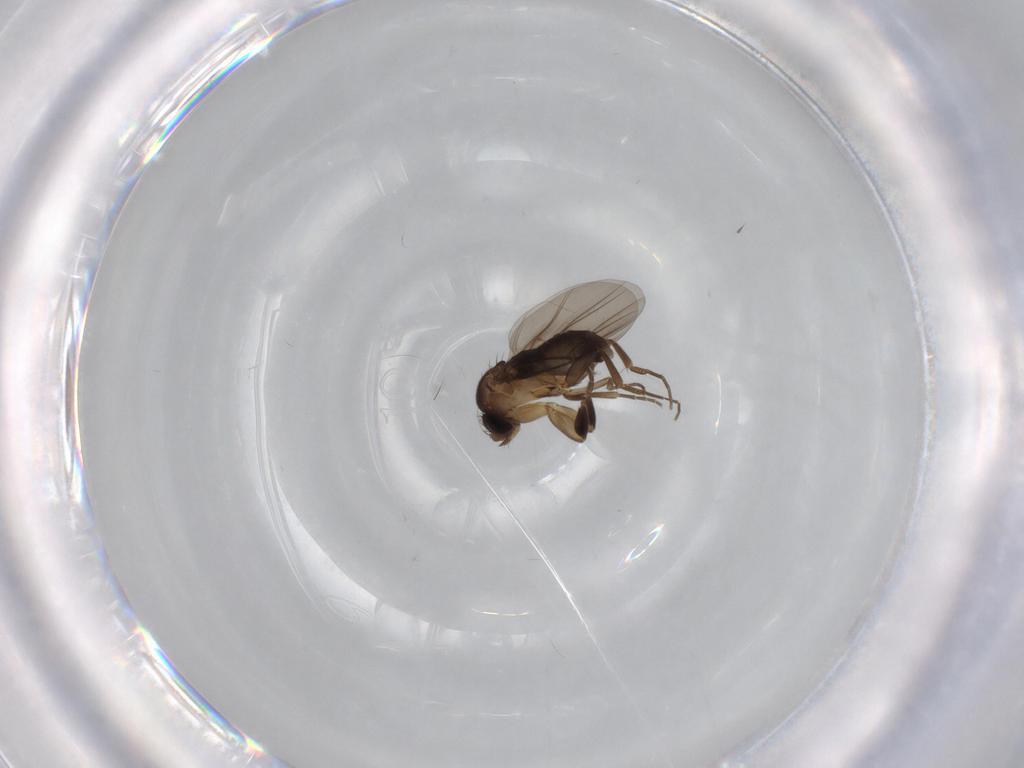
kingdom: Animalia
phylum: Arthropoda
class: Insecta
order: Diptera
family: Phoridae
